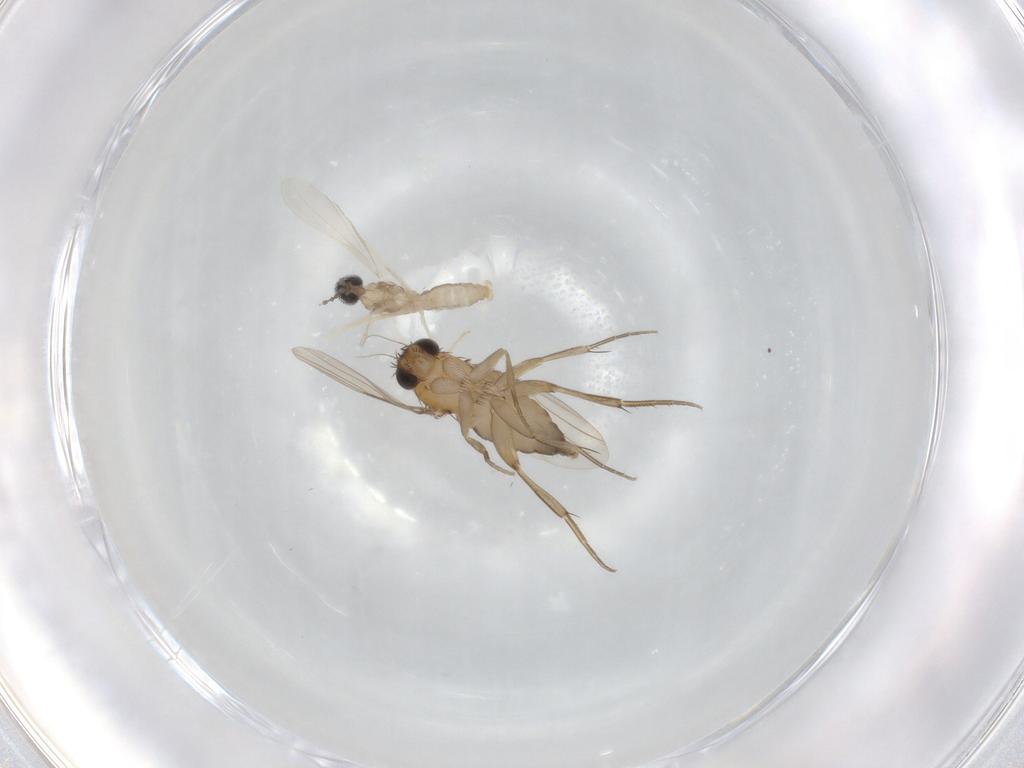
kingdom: Animalia
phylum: Arthropoda
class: Insecta
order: Diptera
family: Cecidomyiidae
